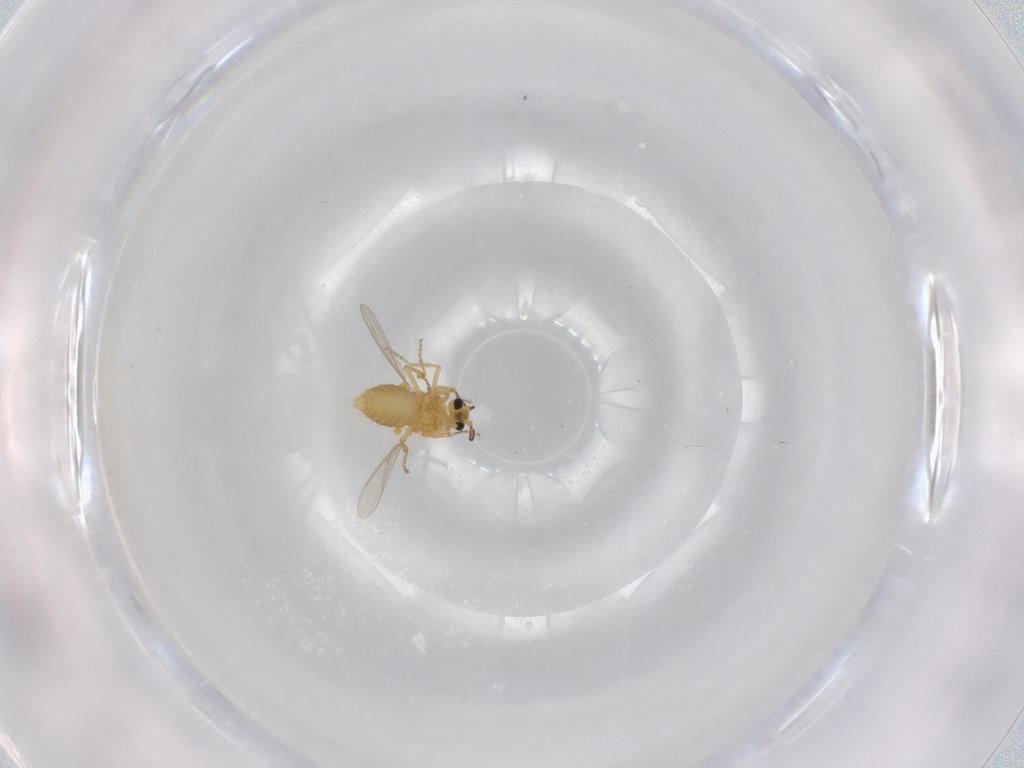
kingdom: Animalia
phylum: Arthropoda
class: Insecta
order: Diptera
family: Ceratopogonidae
